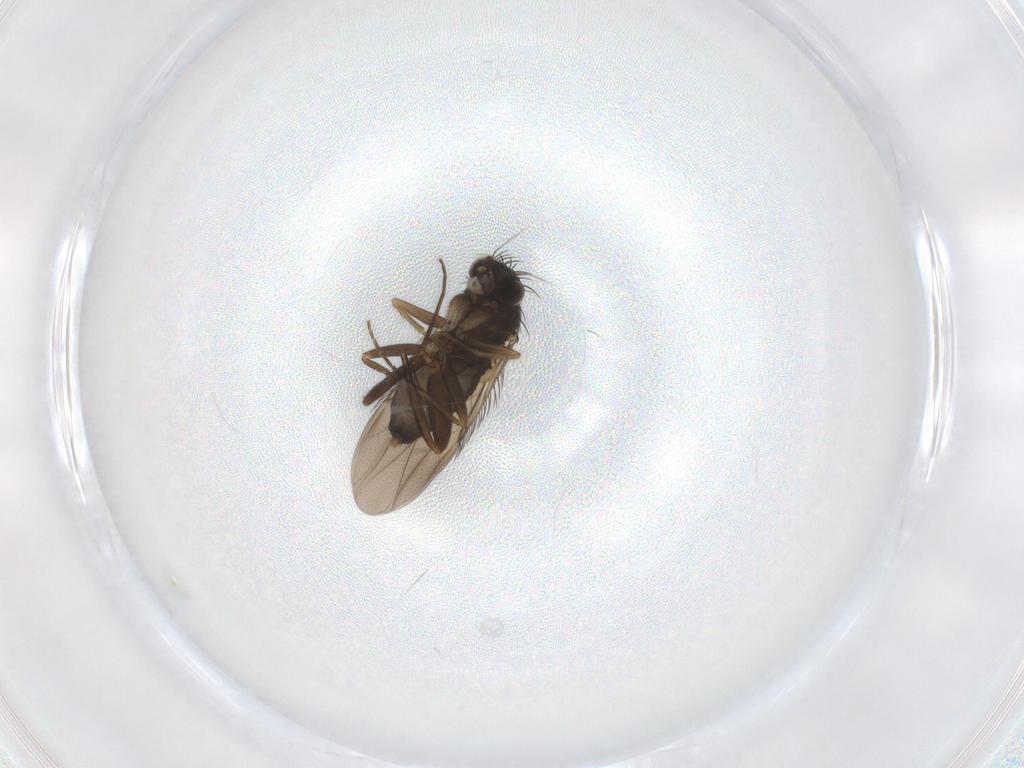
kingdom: Animalia
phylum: Arthropoda
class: Insecta
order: Diptera
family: Phoridae
